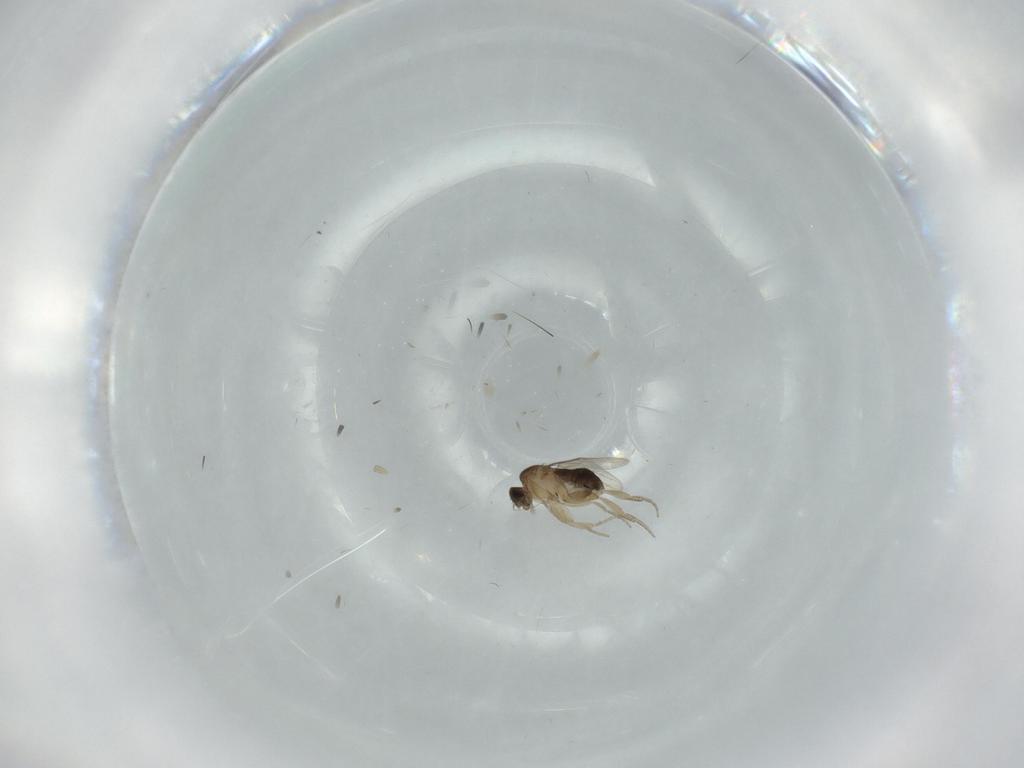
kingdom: Animalia
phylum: Arthropoda
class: Insecta
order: Diptera
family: Phoridae
